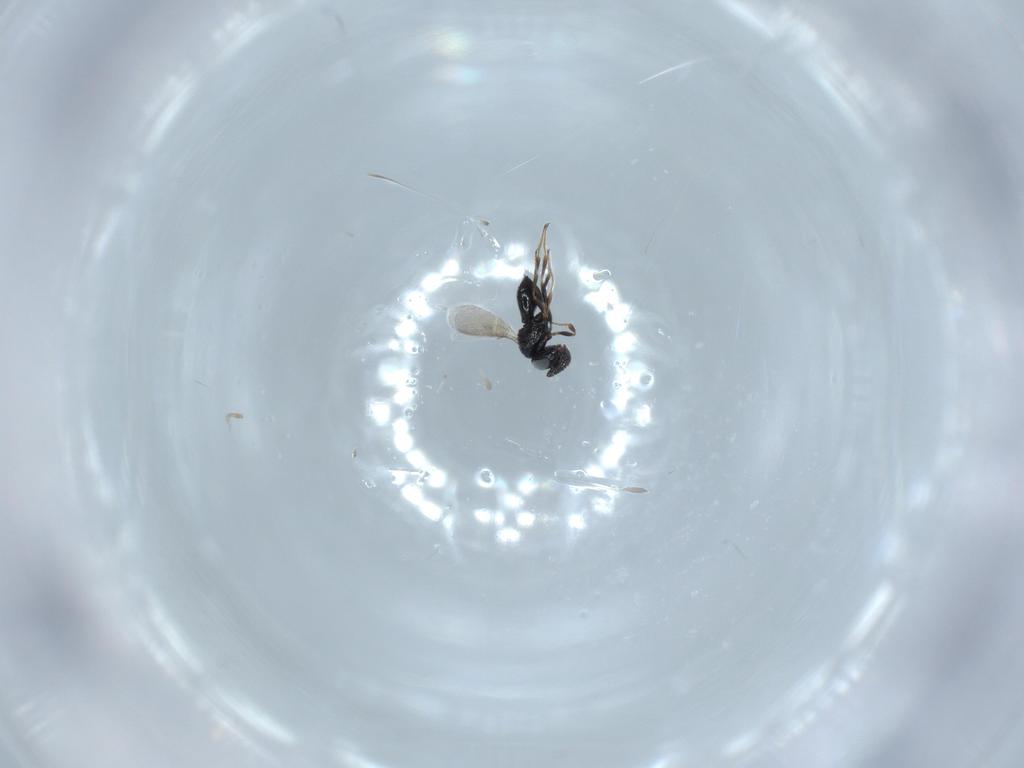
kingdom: Animalia
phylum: Arthropoda
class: Insecta
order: Hymenoptera
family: Scelionidae
